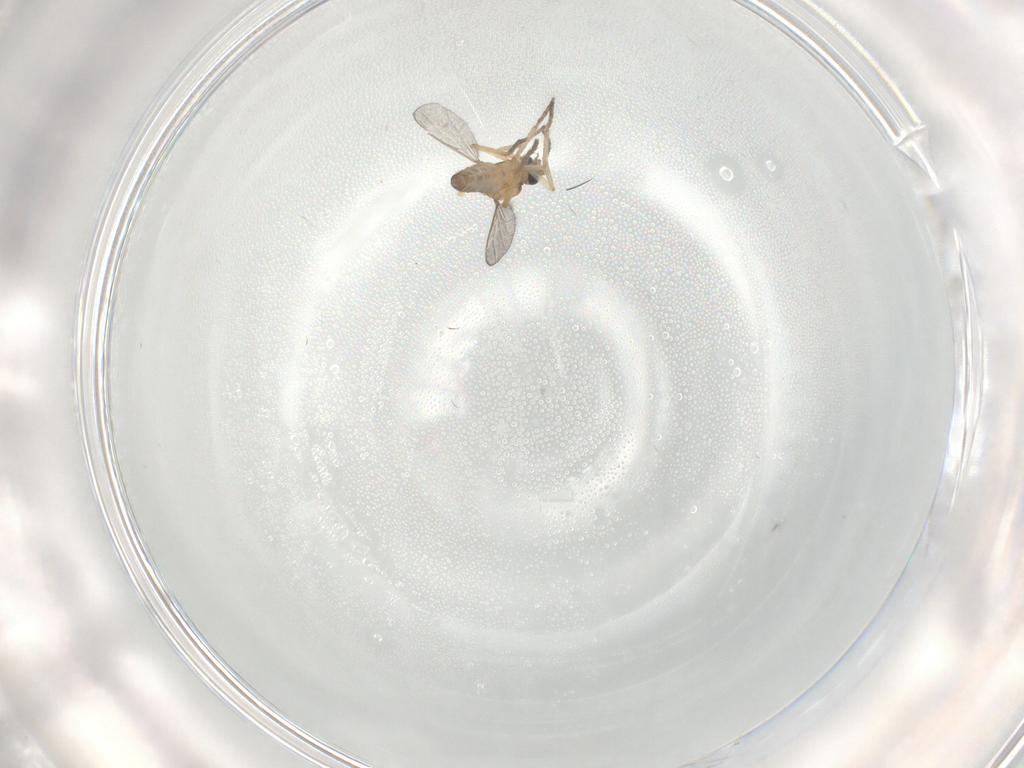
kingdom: Animalia
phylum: Arthropoda
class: Insecta
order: Diptera
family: Ceratopogonidae
